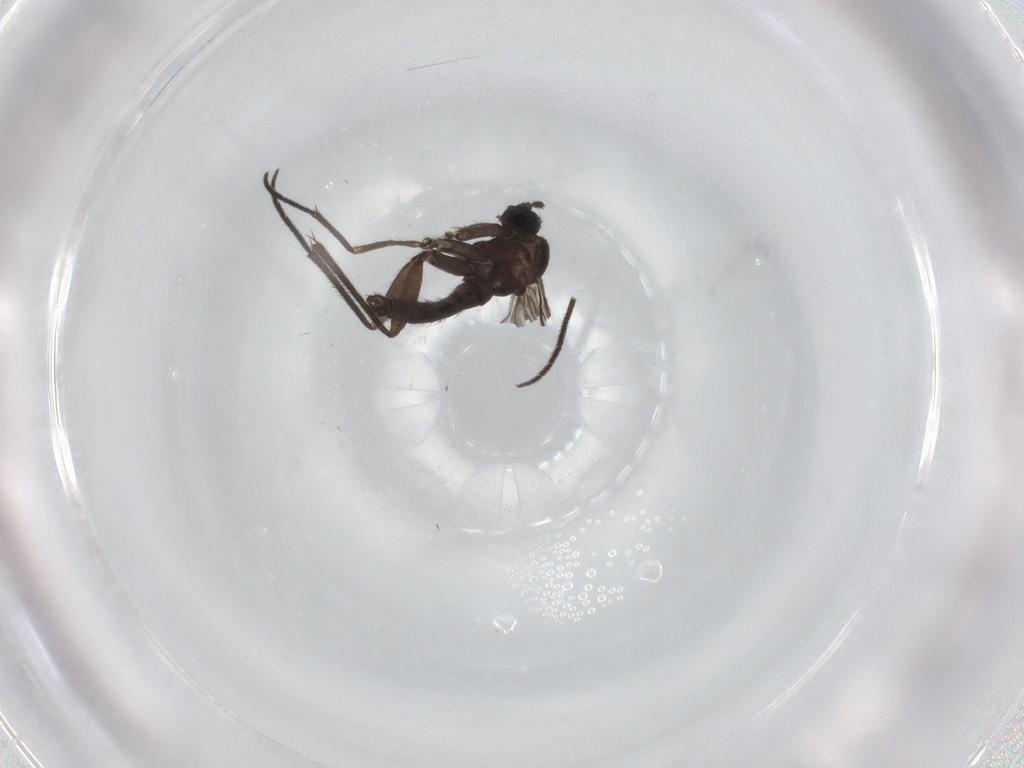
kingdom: Animalia
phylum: Arthropoda
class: Insecta
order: Diptera
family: Sciaridae
